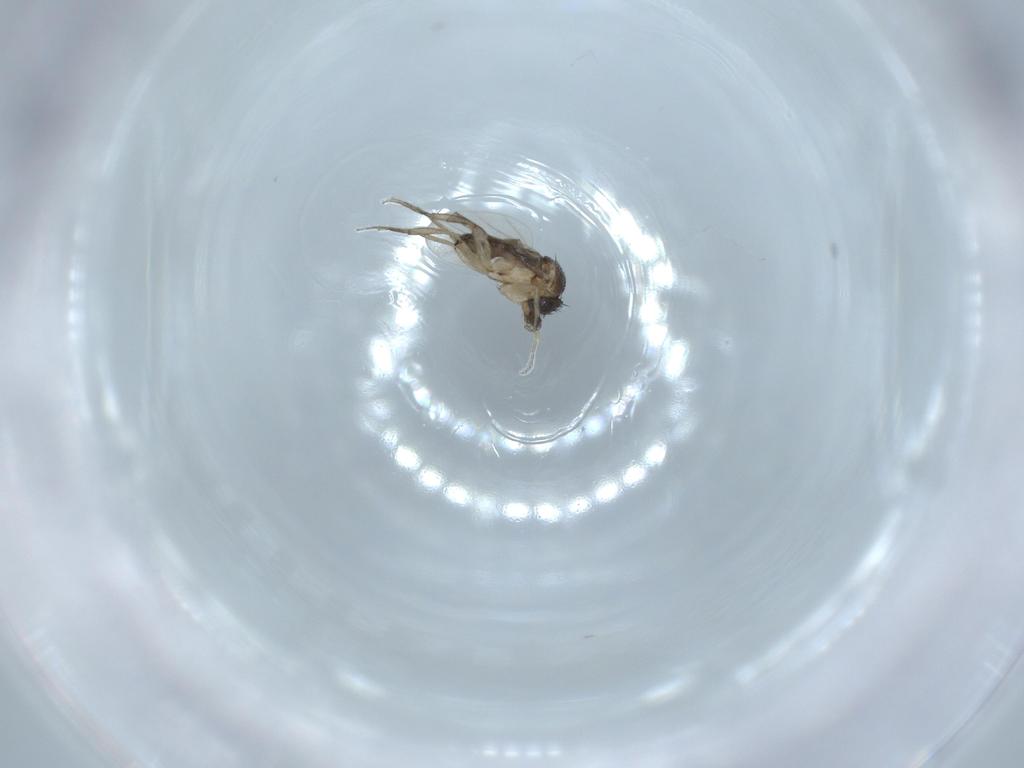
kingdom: Animalia
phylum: Arthropoda
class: Insecta
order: Diptera
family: Phoridae
